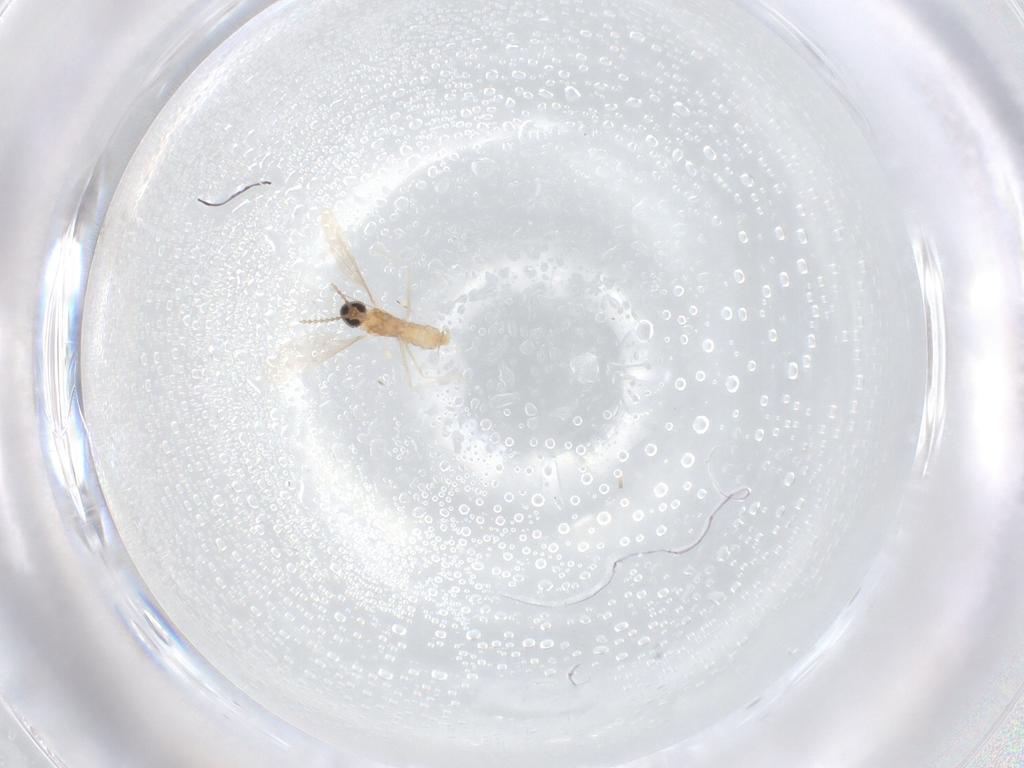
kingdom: Animalia
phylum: Arthropoda
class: Insecta
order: Diptera
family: Cecidomyiidae
